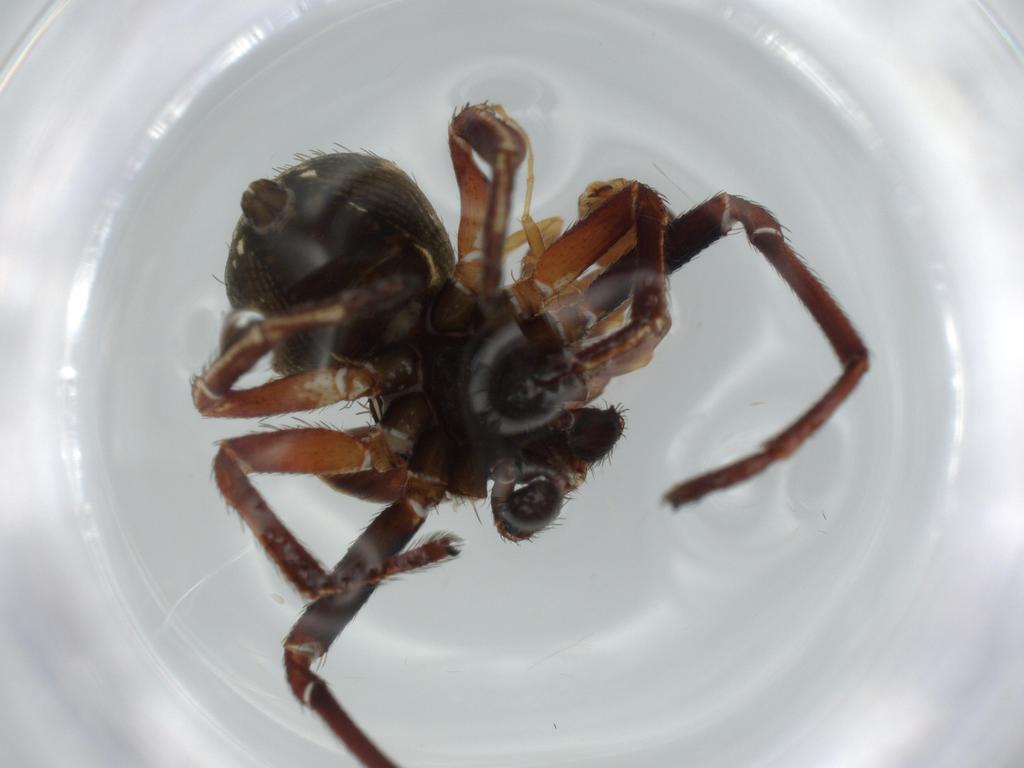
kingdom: Animalia
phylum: Arthropoda
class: Arachnida
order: Araneae
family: Thomisidae
